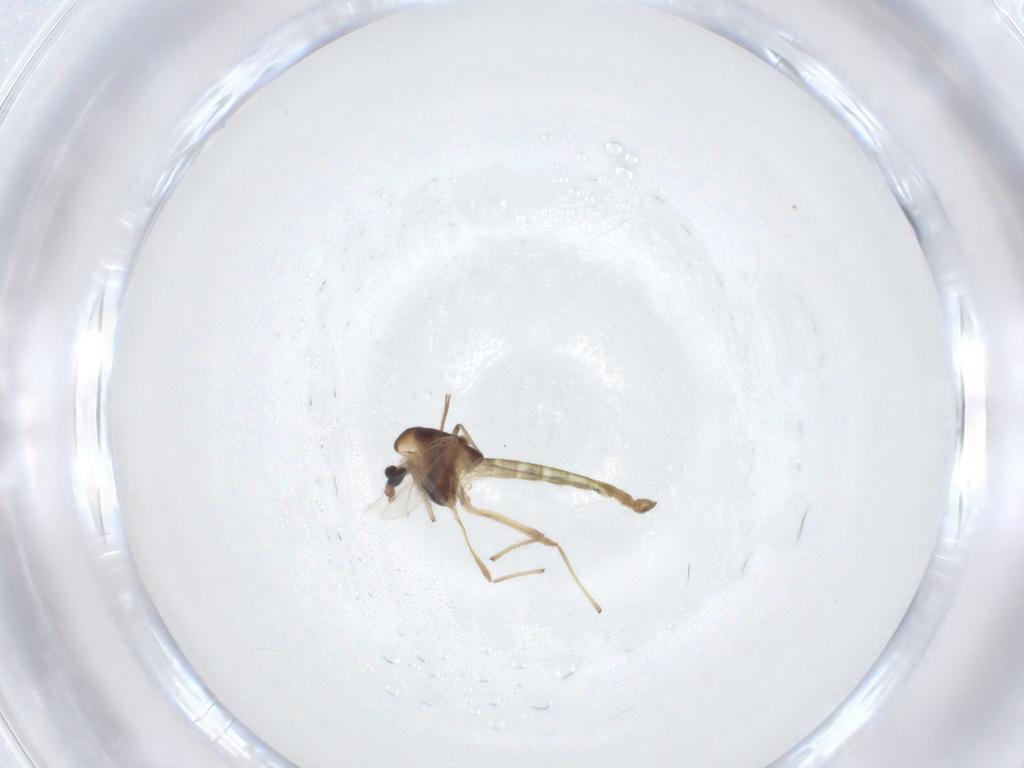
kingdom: Animalia
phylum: Arthropoda
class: Insecta
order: Diptera
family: Chironomidae
